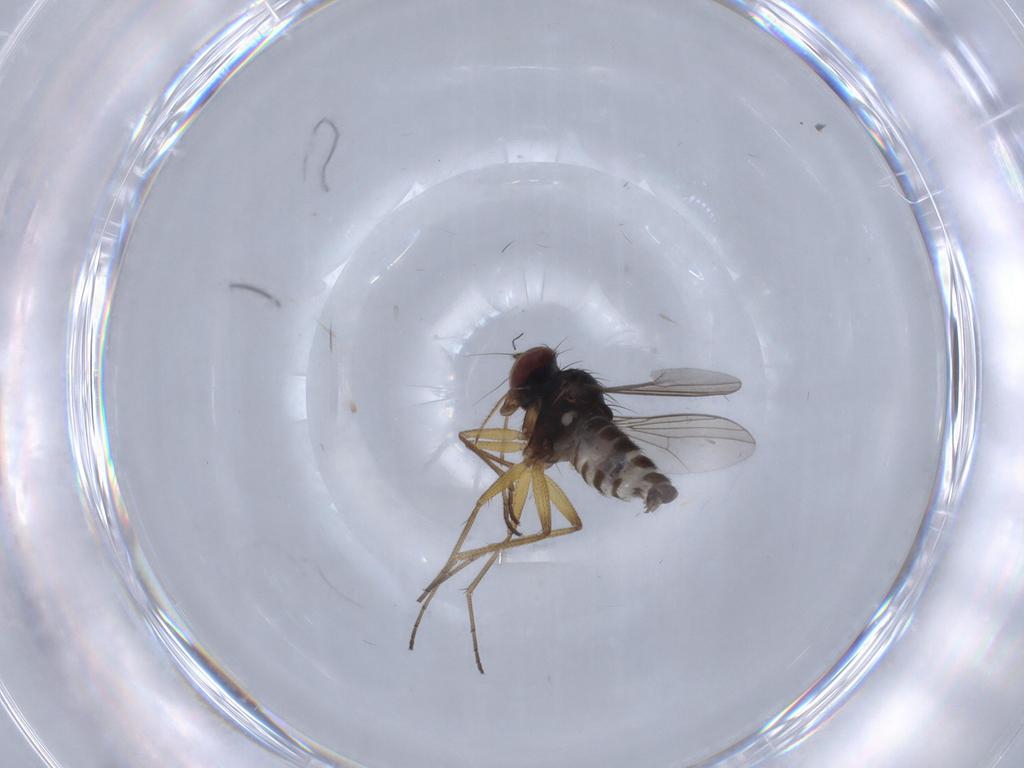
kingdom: Animalia
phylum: Arthropoda
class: Insecta
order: Diptera
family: Dolichopodidae
